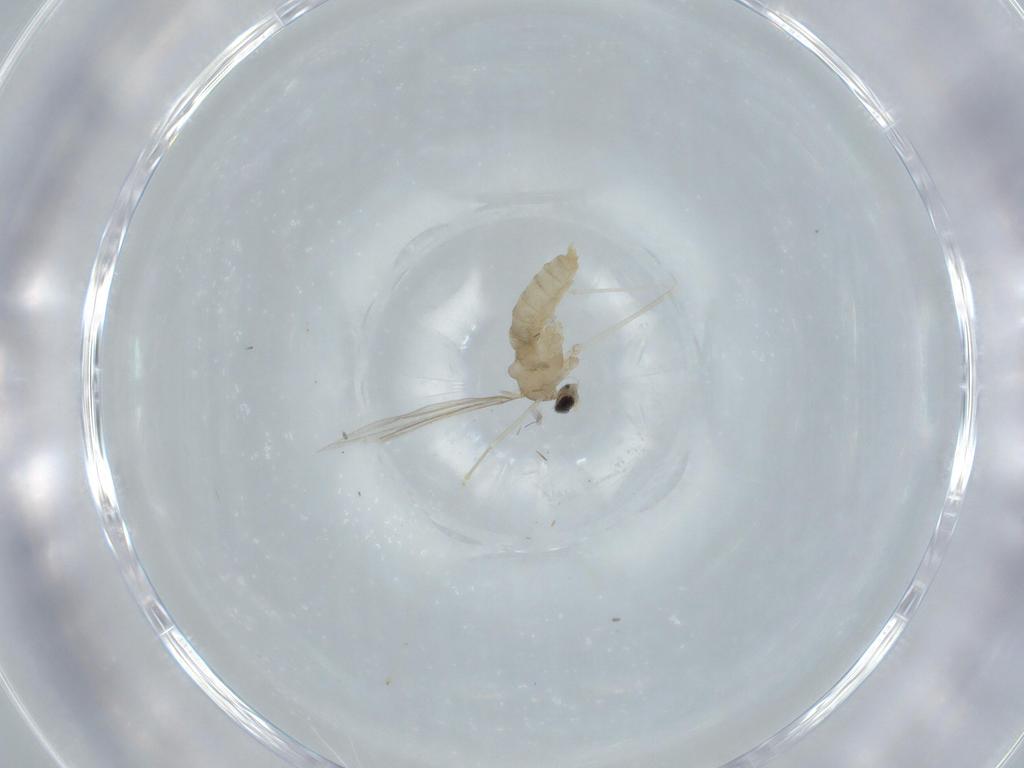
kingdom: Animalia
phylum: Arthropoda
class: Insecta
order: Diptera
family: Cecidomyiidae
